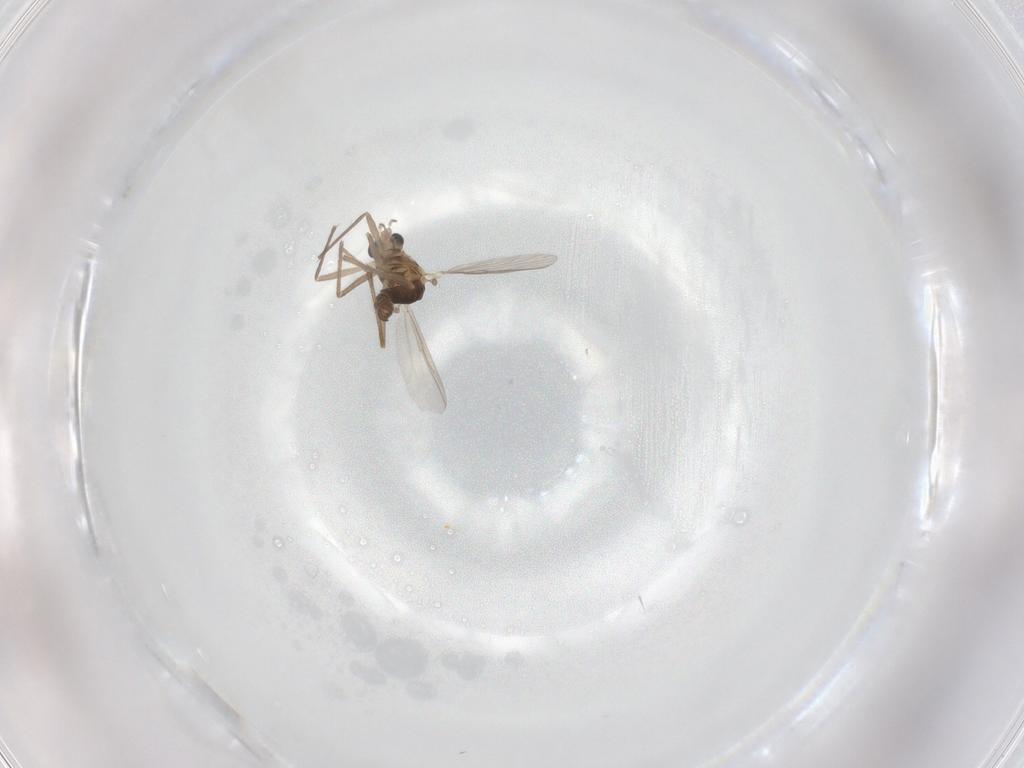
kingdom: Animalia
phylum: Arthropoda
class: Insecta
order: Diptera
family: Chironomidae
